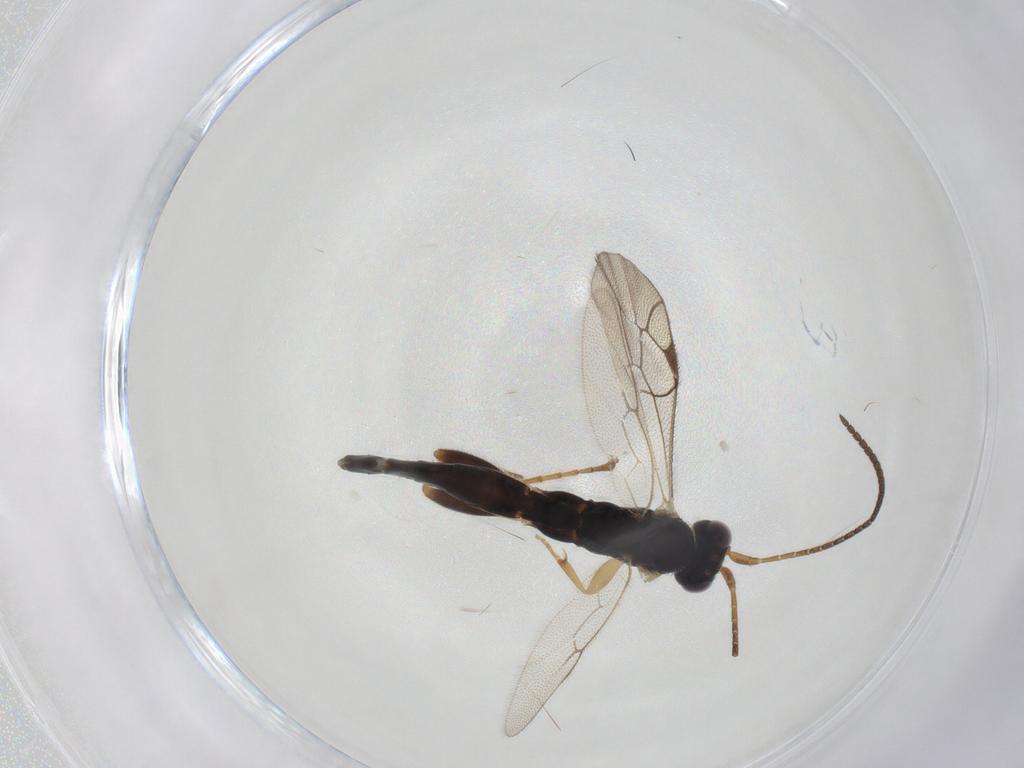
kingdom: Animalia
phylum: Arthropoda
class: Insecta
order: Hymenoptera
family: Ichneumonidae
